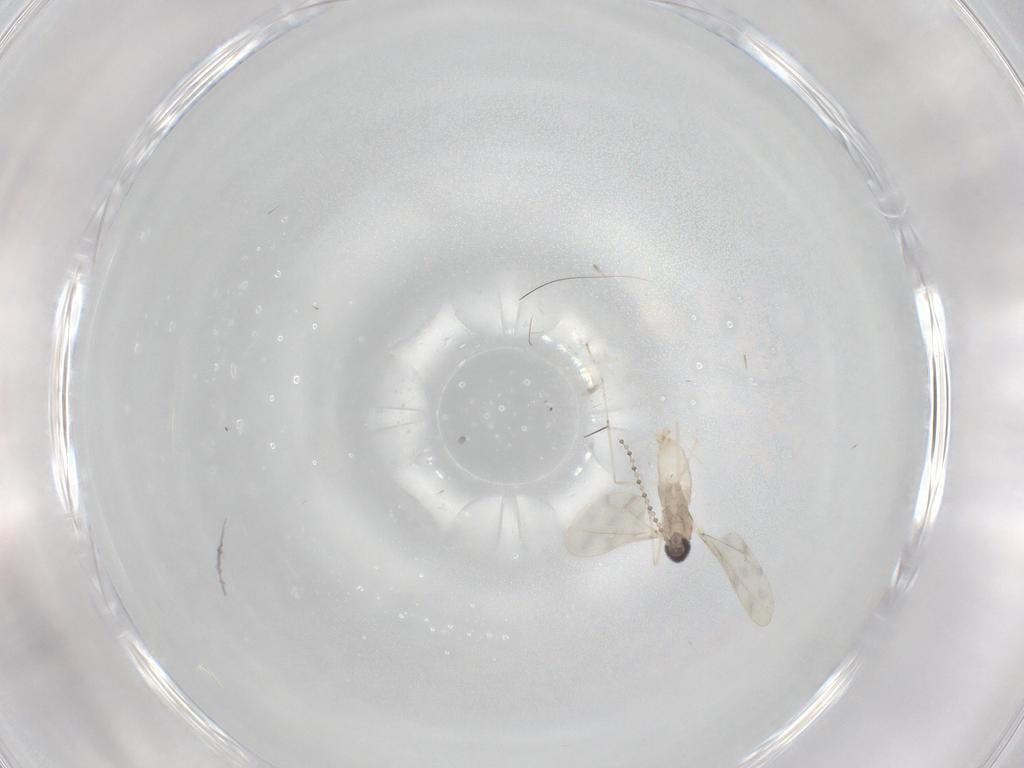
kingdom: Animalia
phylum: Arthropoda
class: Insecta
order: Diptera
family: Cecidomyiidae
